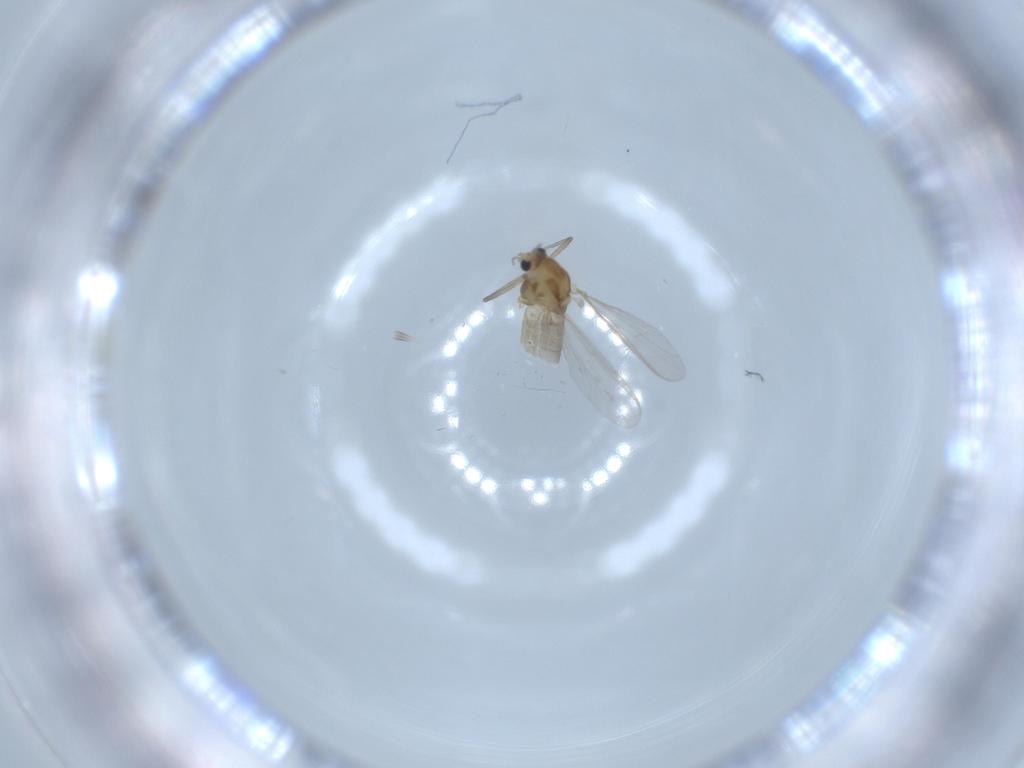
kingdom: Animalia
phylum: Arthropoda
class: Insecta
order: Diptera
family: Chironomidae
